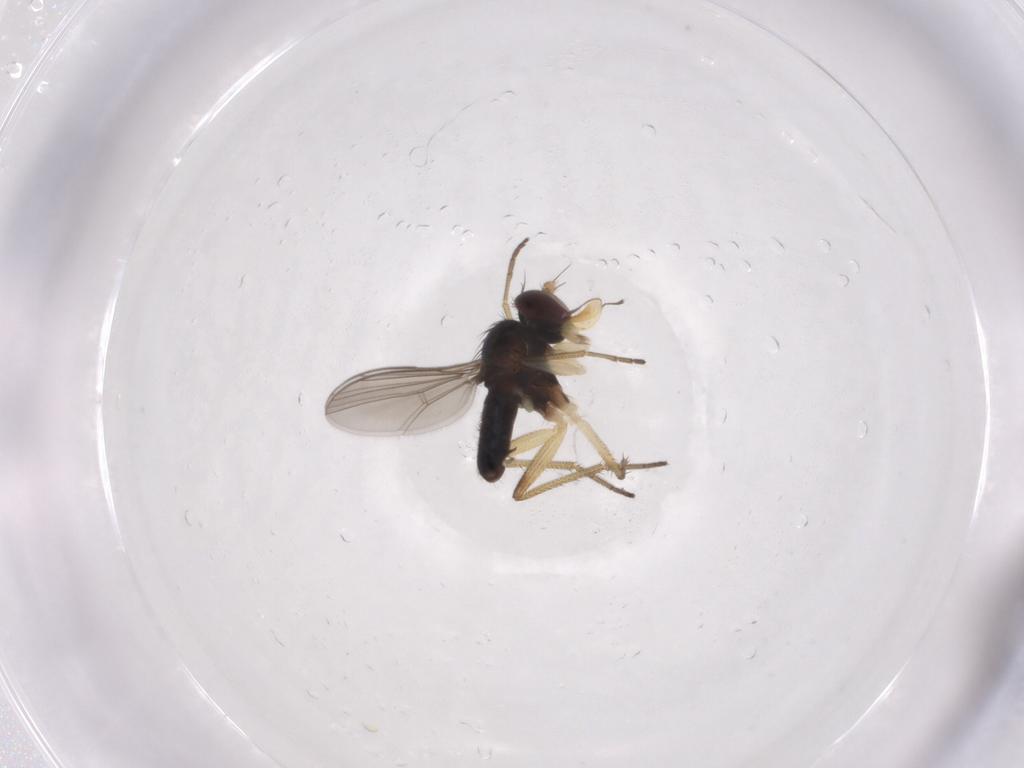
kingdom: Animalia
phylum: Arthropoda
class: Insecta
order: Diptera
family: Dolichopodidae
